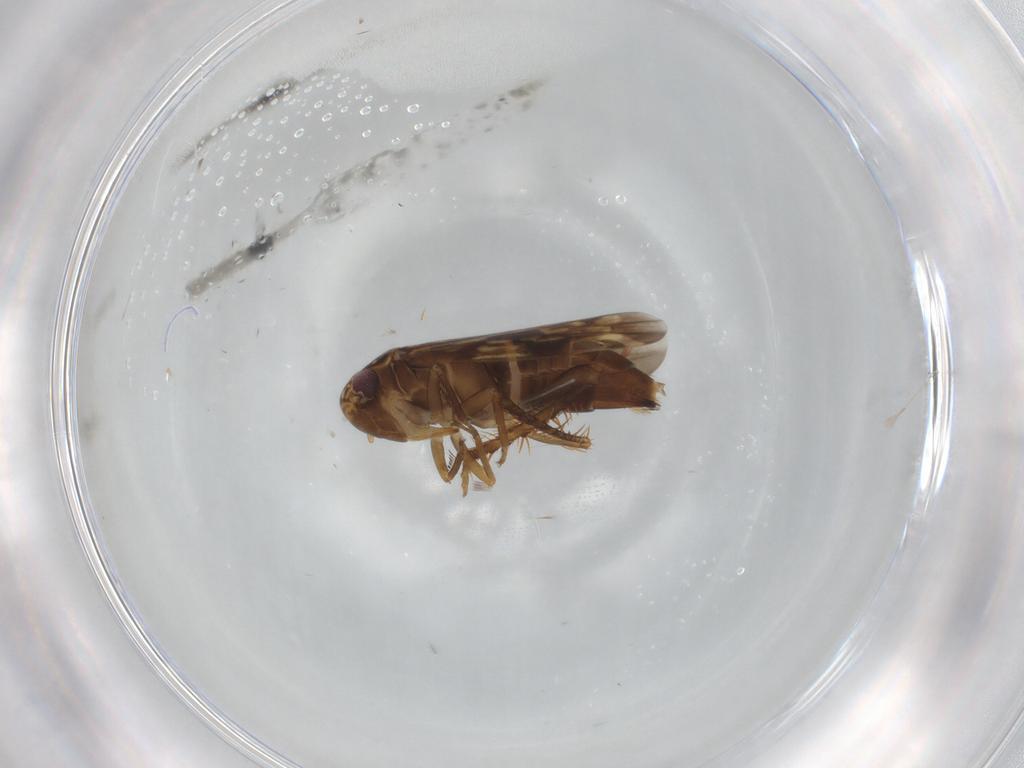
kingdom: Animalia
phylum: Arthropoda
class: Insecta
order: Hemiptera
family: Cicadellidae
